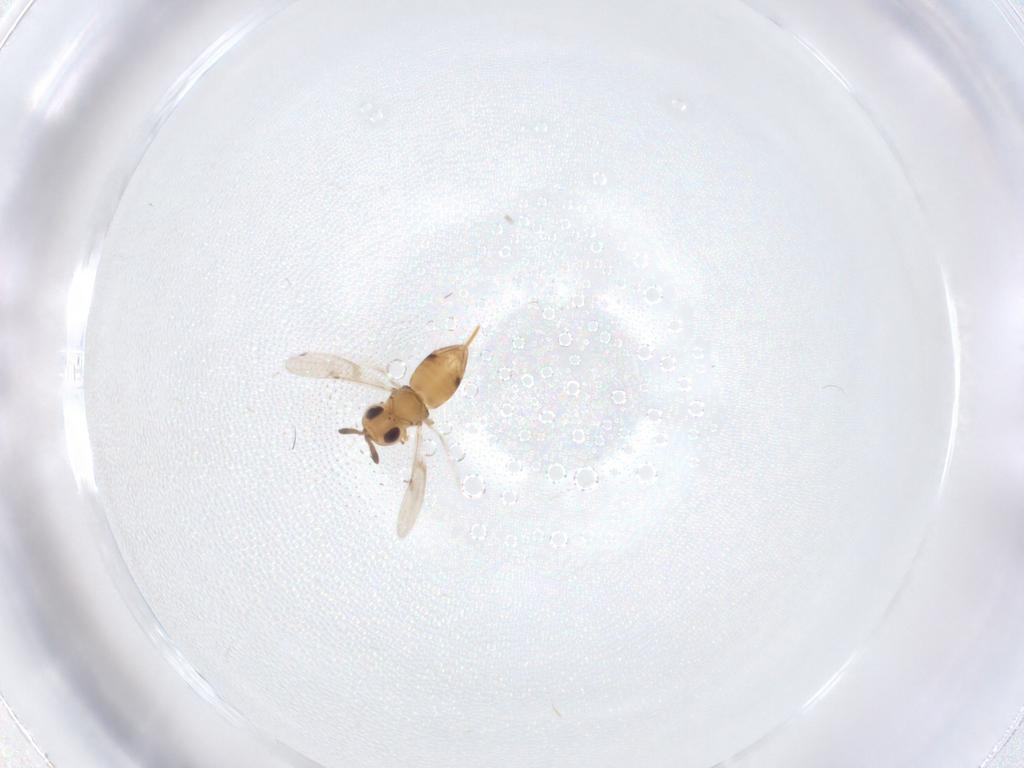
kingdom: Animalia
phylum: Arthropoda
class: Insecta
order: Hymenoptera
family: Encyrtidae
